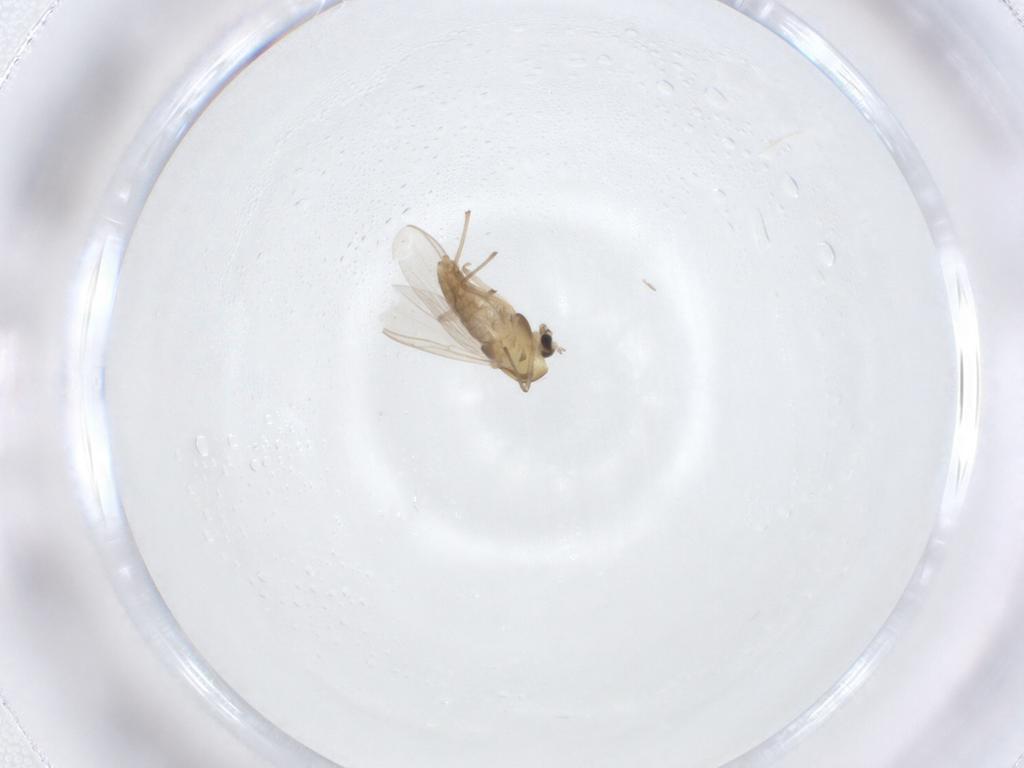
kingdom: Animalia
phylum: Arthropoda
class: Insecta
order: Diptera
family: Chironomidae
